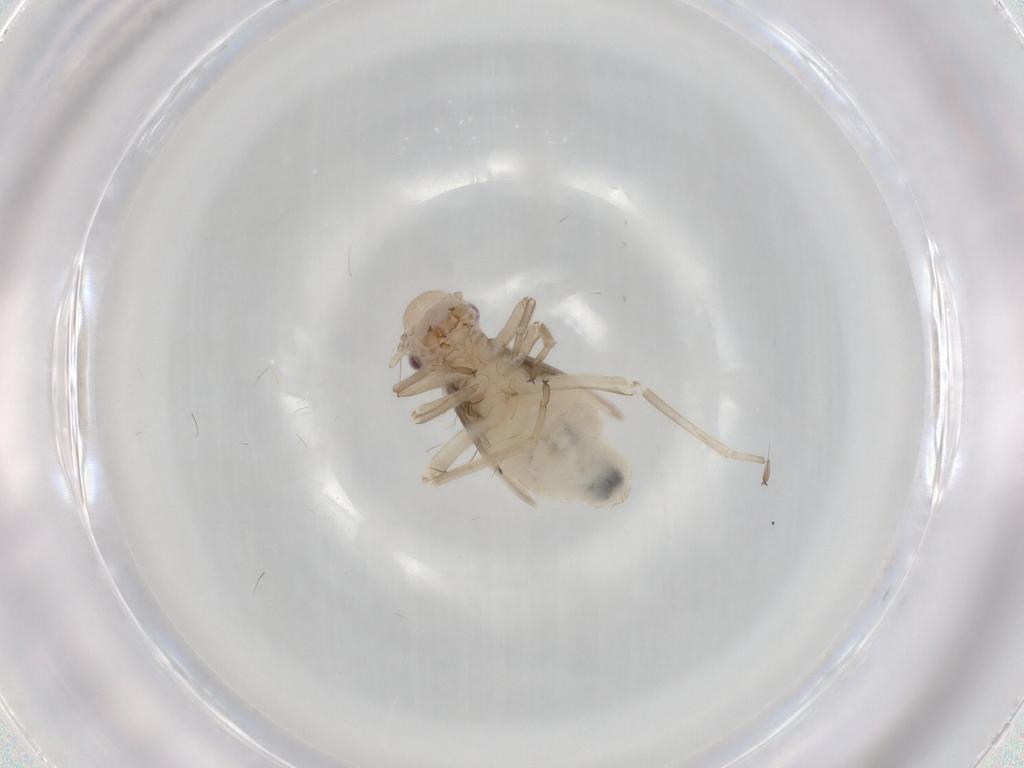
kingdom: Animalia
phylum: Arthropoda
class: Insecta
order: Psocodea
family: Stenopsocidae
